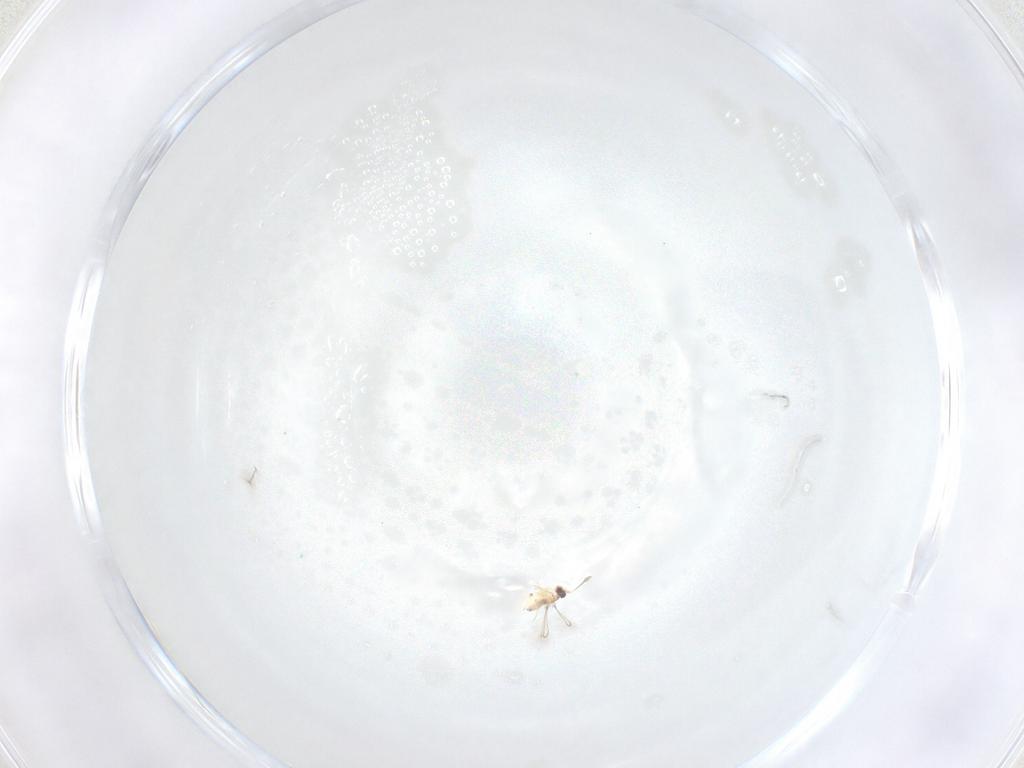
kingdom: Animalia
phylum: Arthropoda
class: Insecta
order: Hymenoptera
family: Mymaridae
